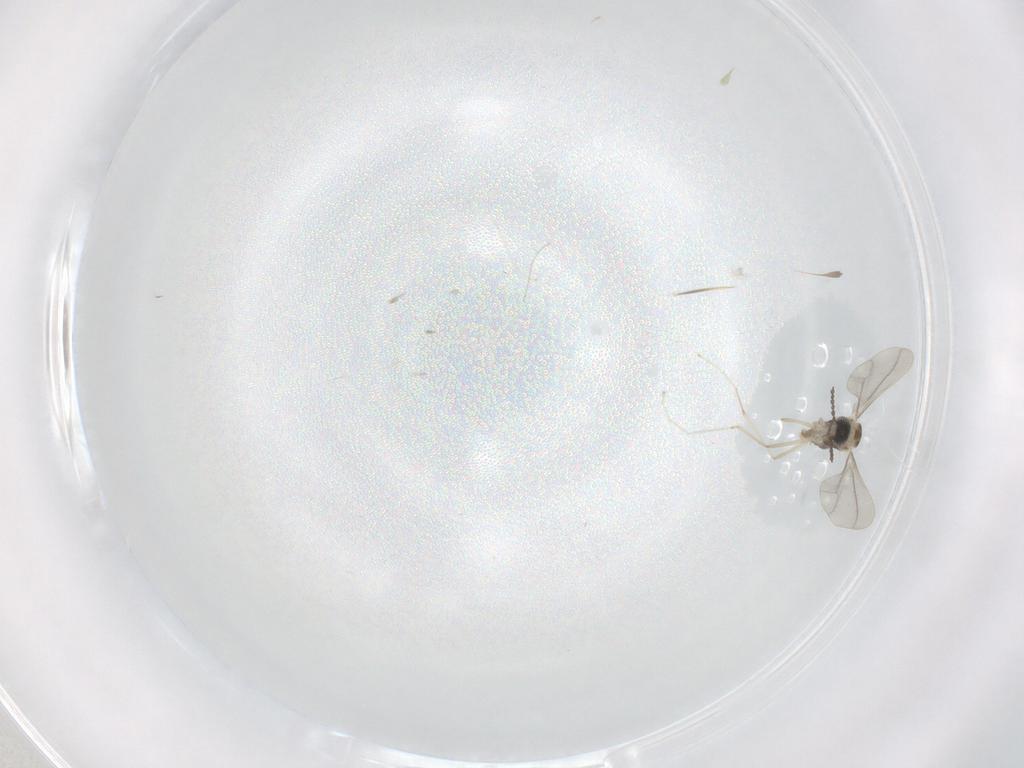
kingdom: Animalia
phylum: Arthropoda
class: Insecta
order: Diptera
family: Cecidomyiidae
